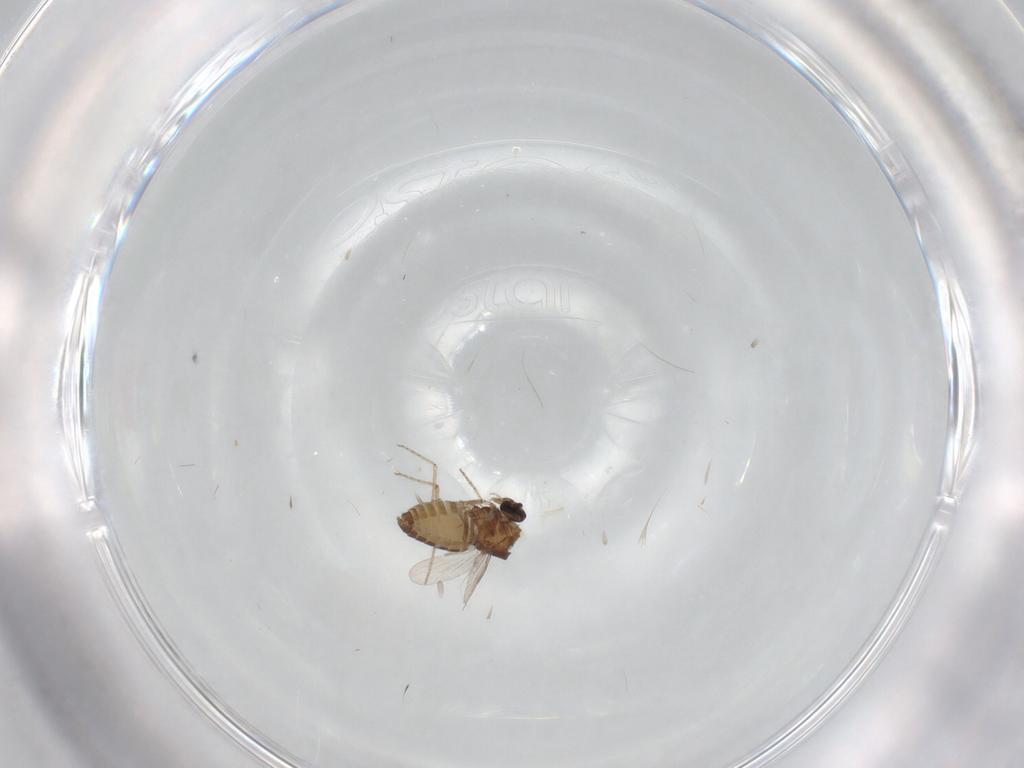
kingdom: Animalia
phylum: Arthropoda
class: Insecta
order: Diptera
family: Ceratopogonidae
